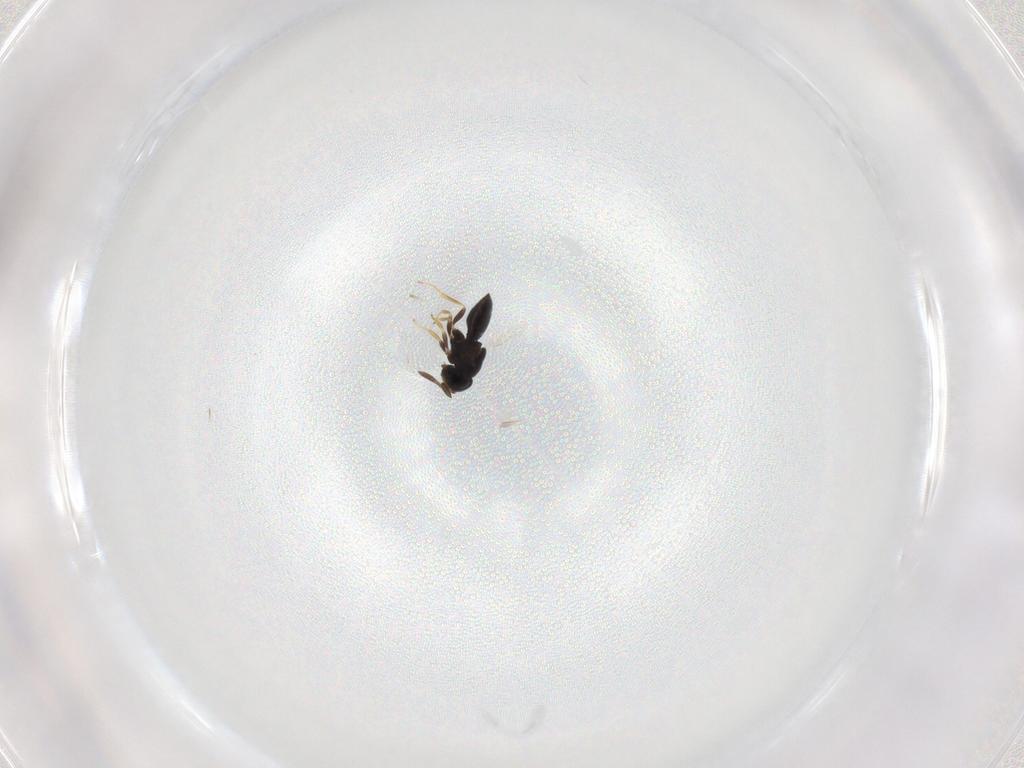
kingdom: Animalia
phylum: Arthropoda
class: Insecta
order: Hymenoptera
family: Scelionidae
